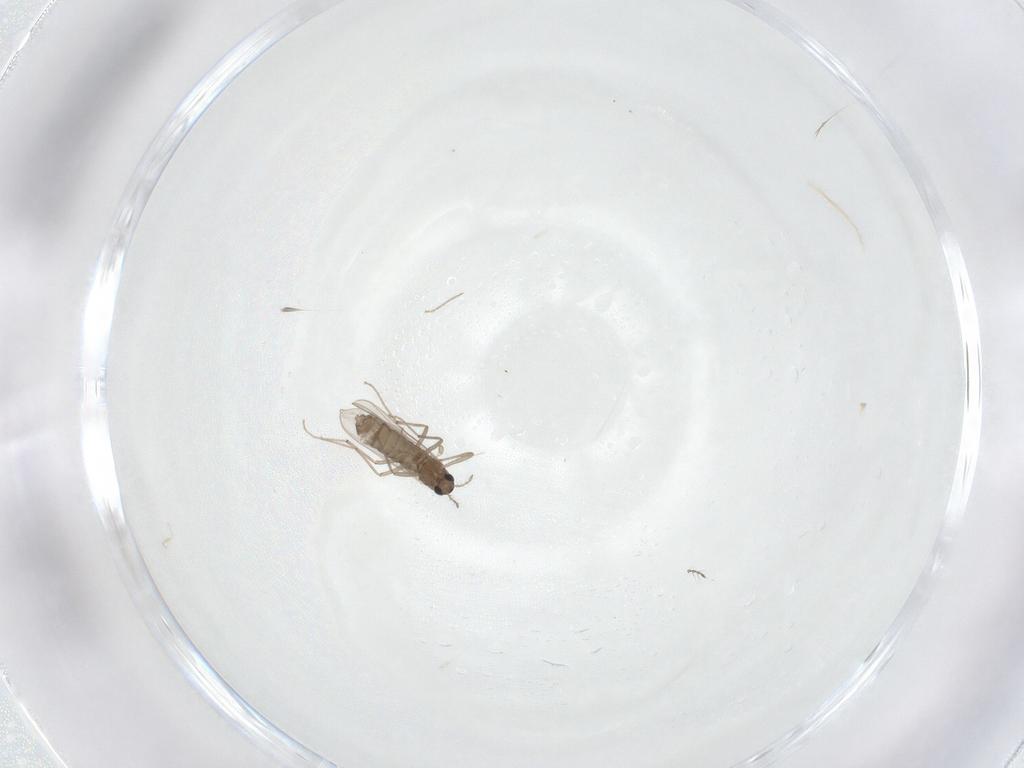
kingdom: Animalia
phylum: Arthropoda
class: Insecta
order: Diptera
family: Chironomidae
